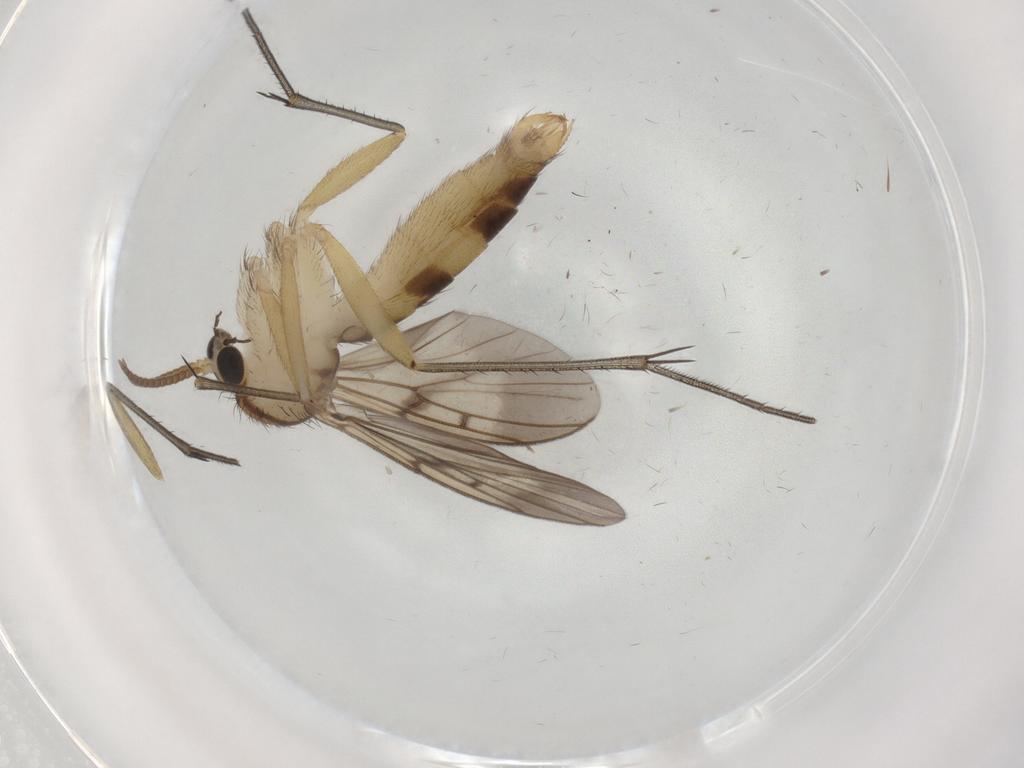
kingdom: Animalia
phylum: Arthropoda
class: Insecta
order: Diptera
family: Mycetophilidae
